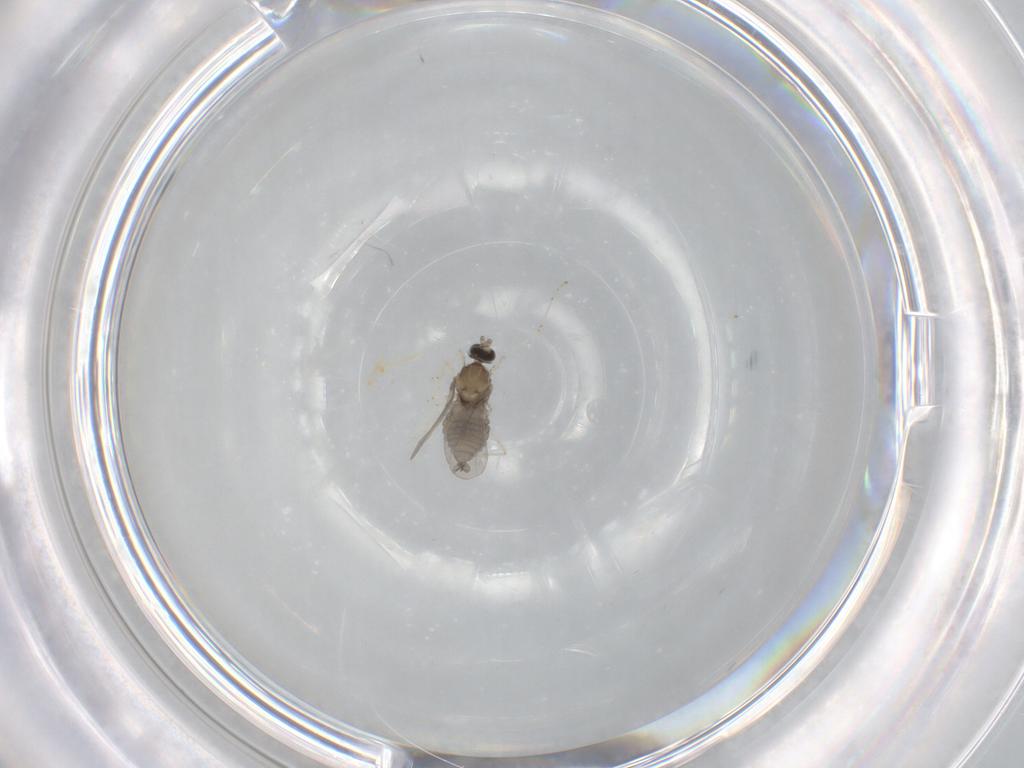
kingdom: Animalia
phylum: Arthropoda
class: Insecta
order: Diptera
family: Cecidomyiidae
